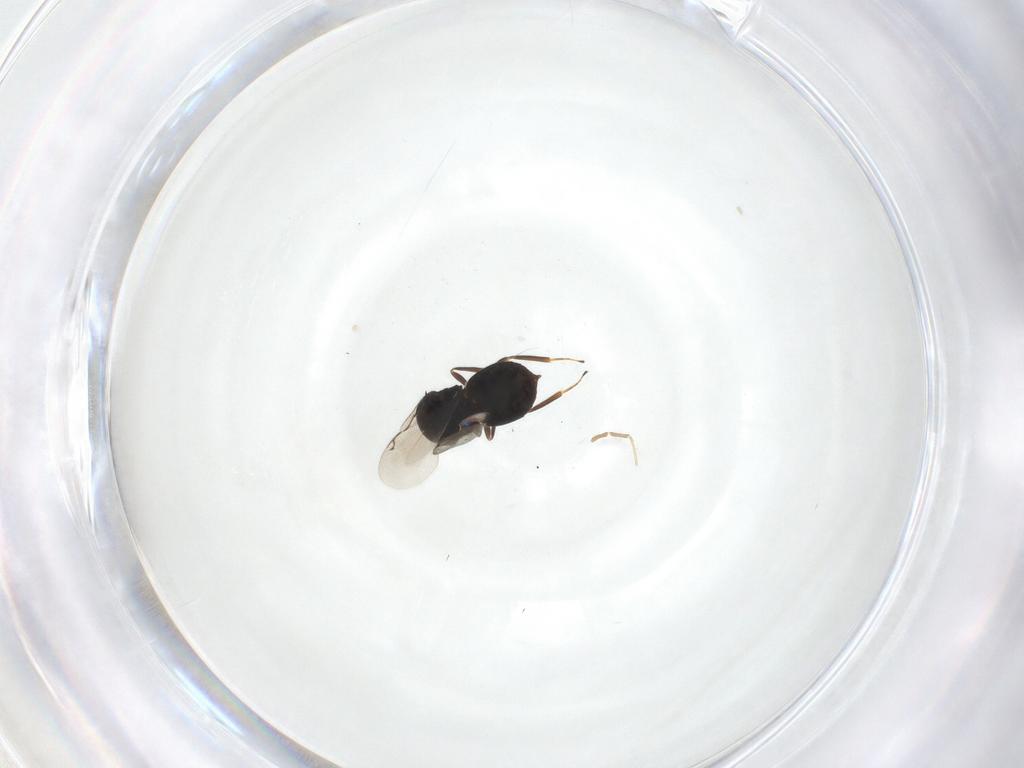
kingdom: Animalia
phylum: Arthropoda
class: Insecta
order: Hymenoptera
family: Eunotidae
